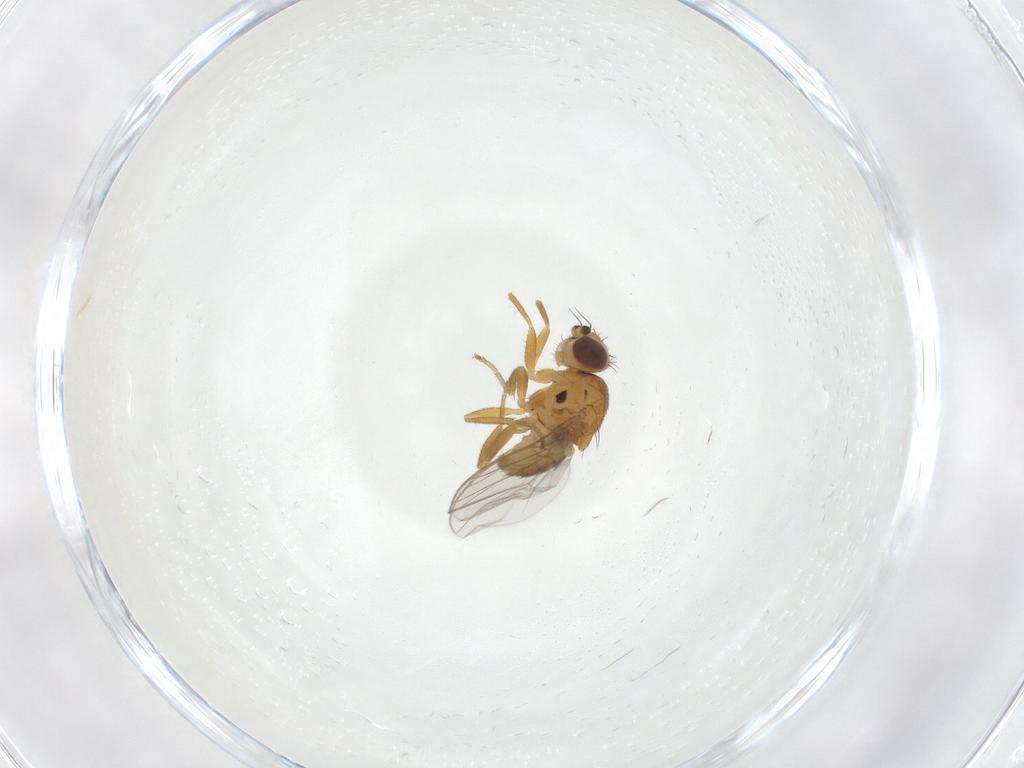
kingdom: Animalia
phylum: Arthropoda
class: Insecta
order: Diptera
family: Chloropidae
